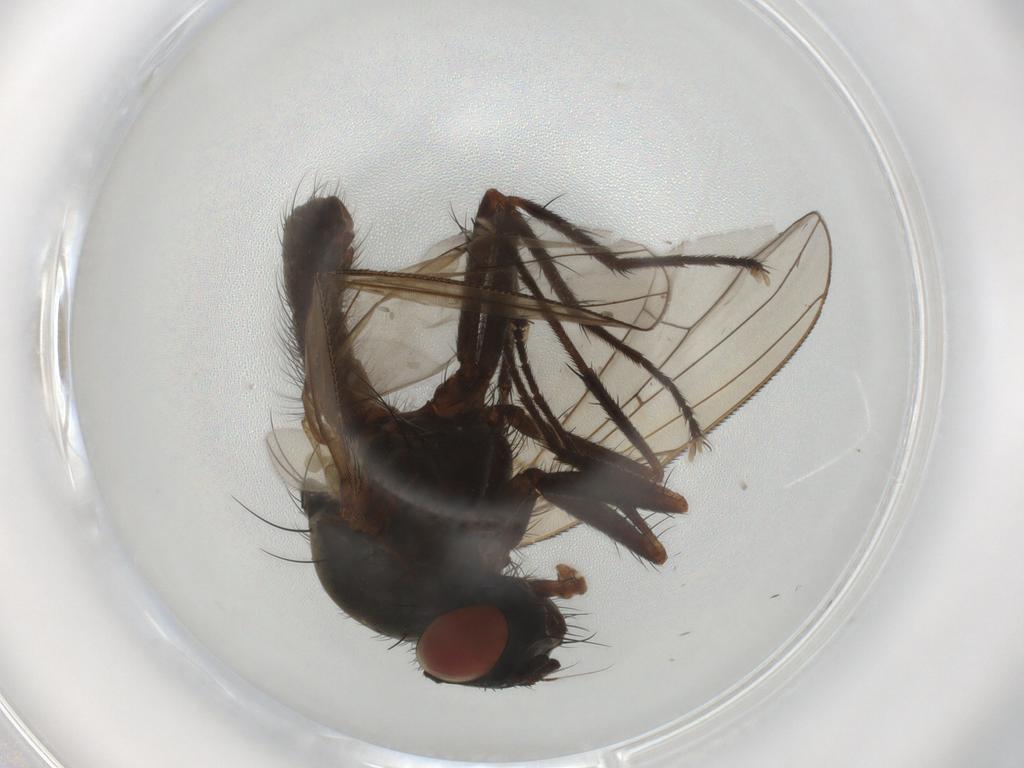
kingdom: Animalia
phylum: Arthropoda
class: Insecta
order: Diptera
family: Anthomyiidae
